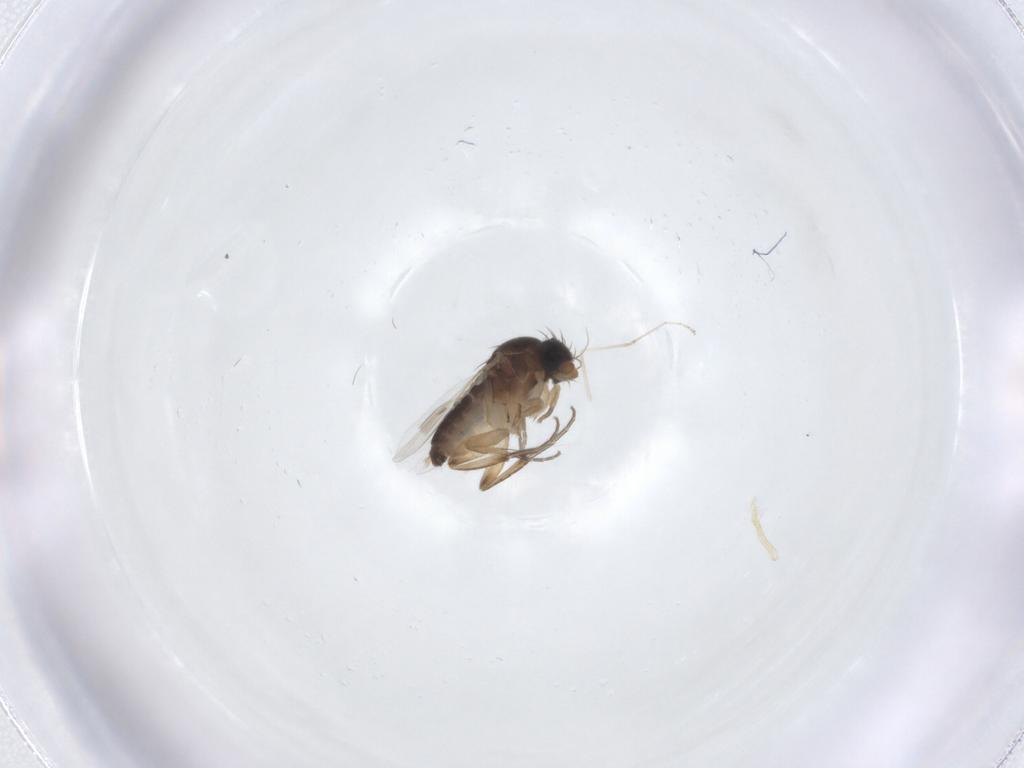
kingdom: Animalia
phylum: Arthropoda
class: Insecta
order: Diptera
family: Phoridae
